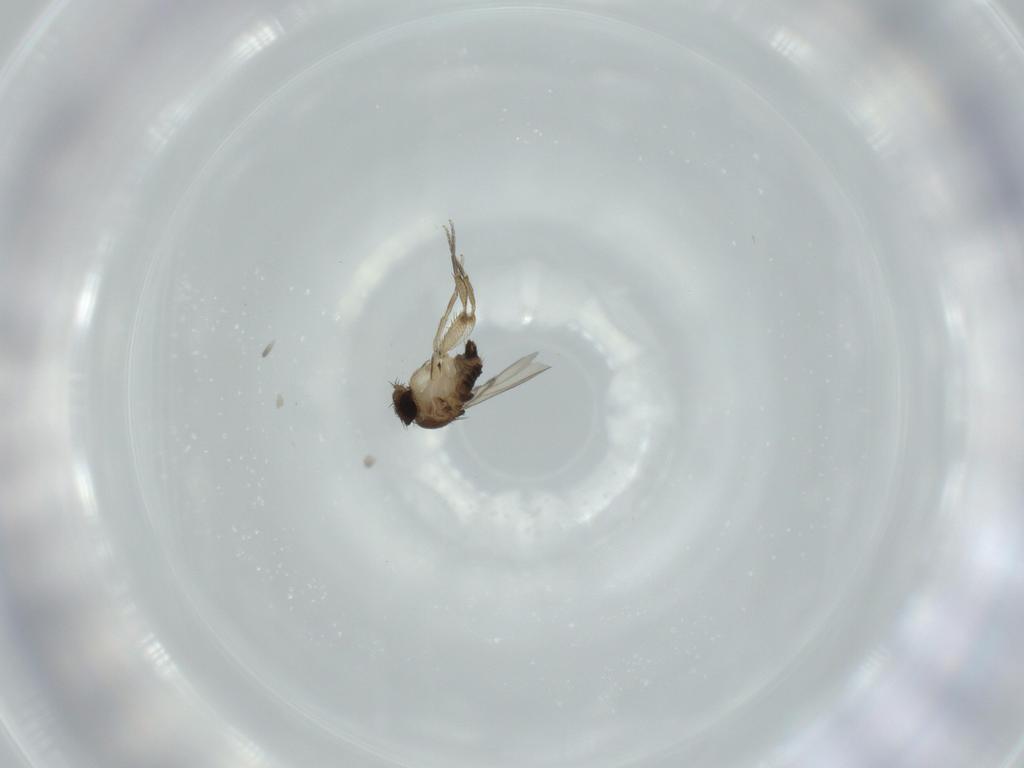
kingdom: Animalia
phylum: Arthropoda
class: Insecta
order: Diptera
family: Phoridae
